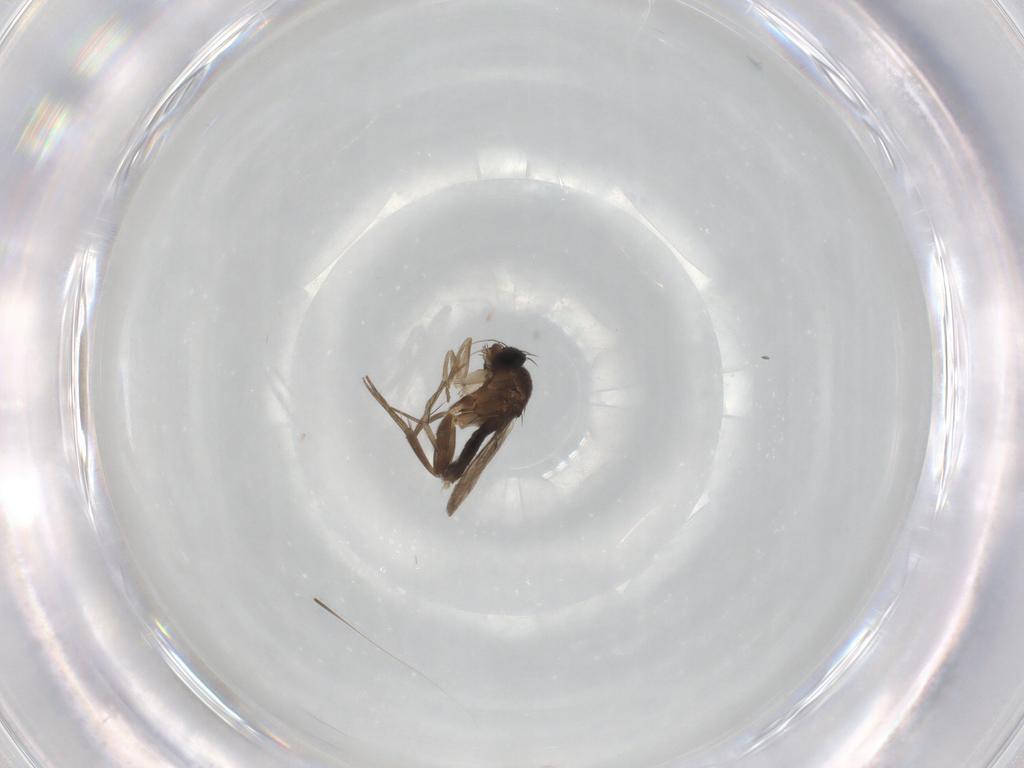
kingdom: Animalia
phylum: Arthropoda
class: Insecta
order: Diptera
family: Phoridae
